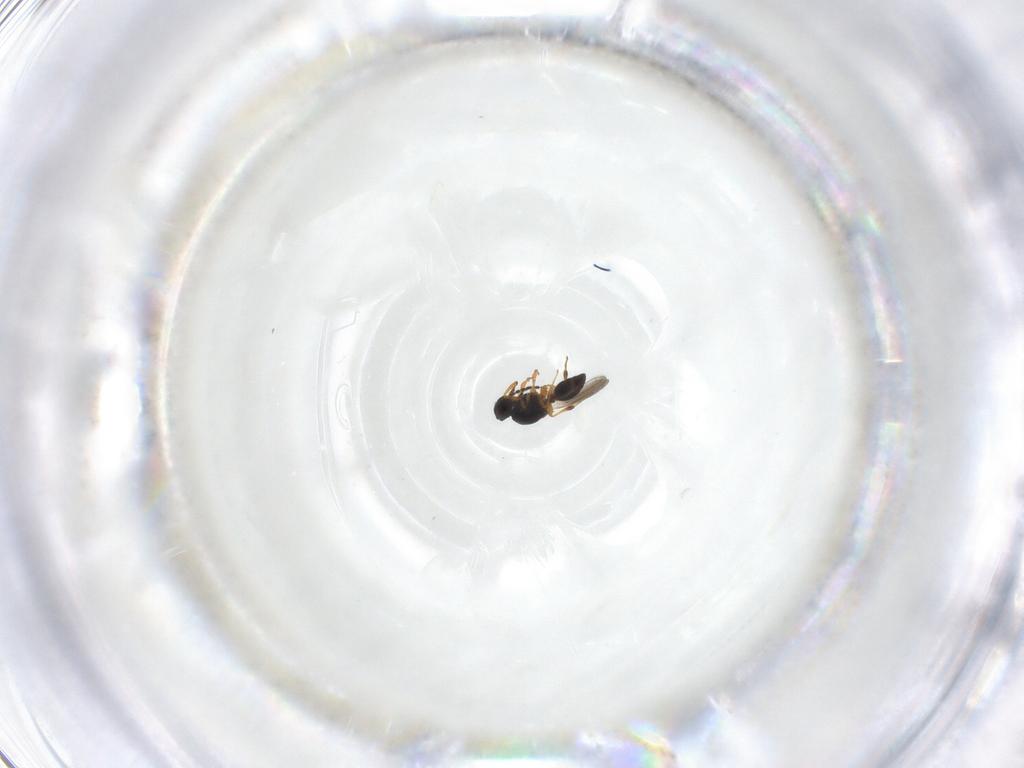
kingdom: Animalia
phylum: Arthropoda
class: Insecta
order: Hymenoptera
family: Platygastridae
